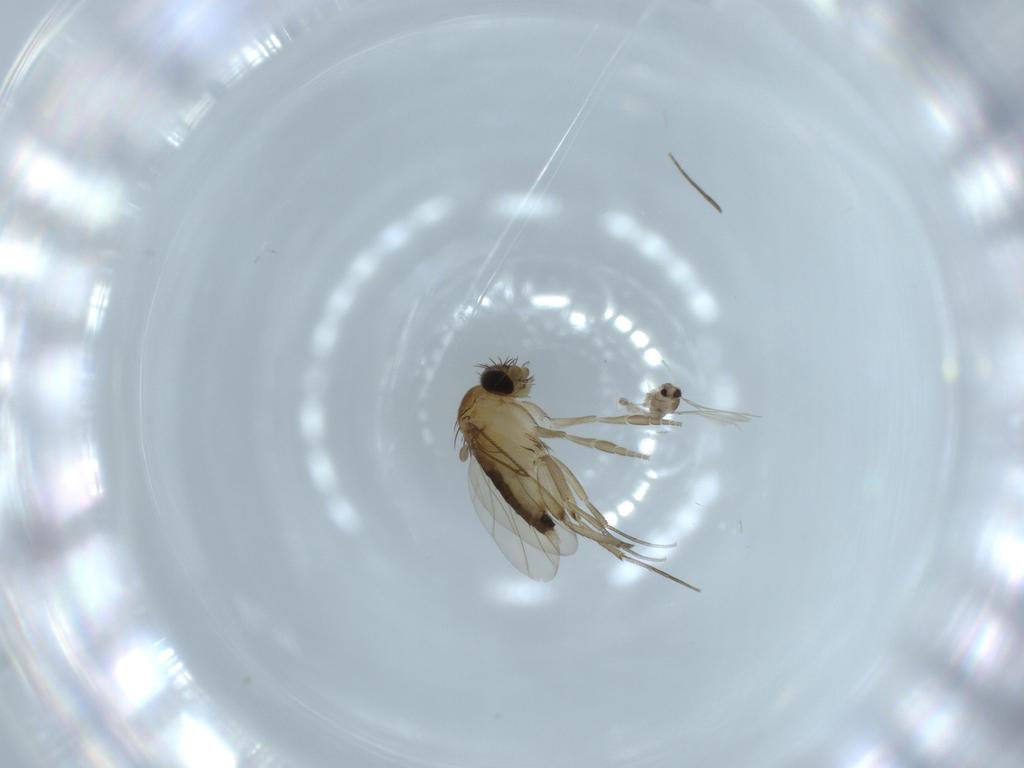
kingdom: Animalia
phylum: Arthropoda
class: Insecta
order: Diptera
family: Phoridae
